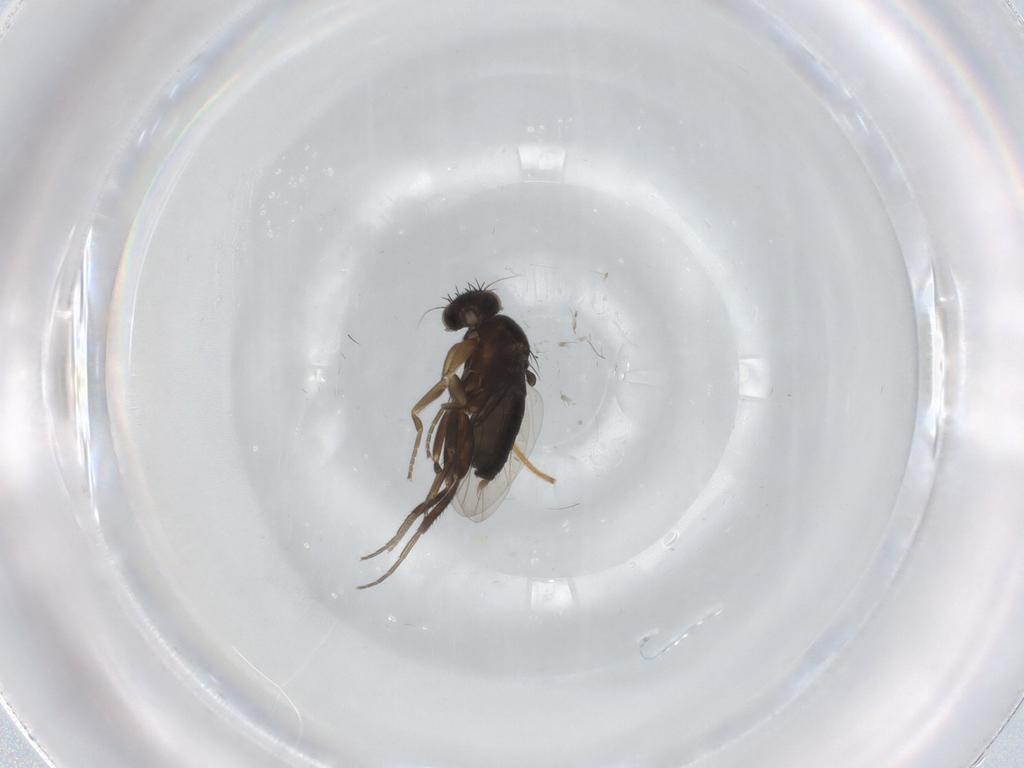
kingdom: Animalia
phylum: Arthropoda
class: Insecta
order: Diptera
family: Phoridae
